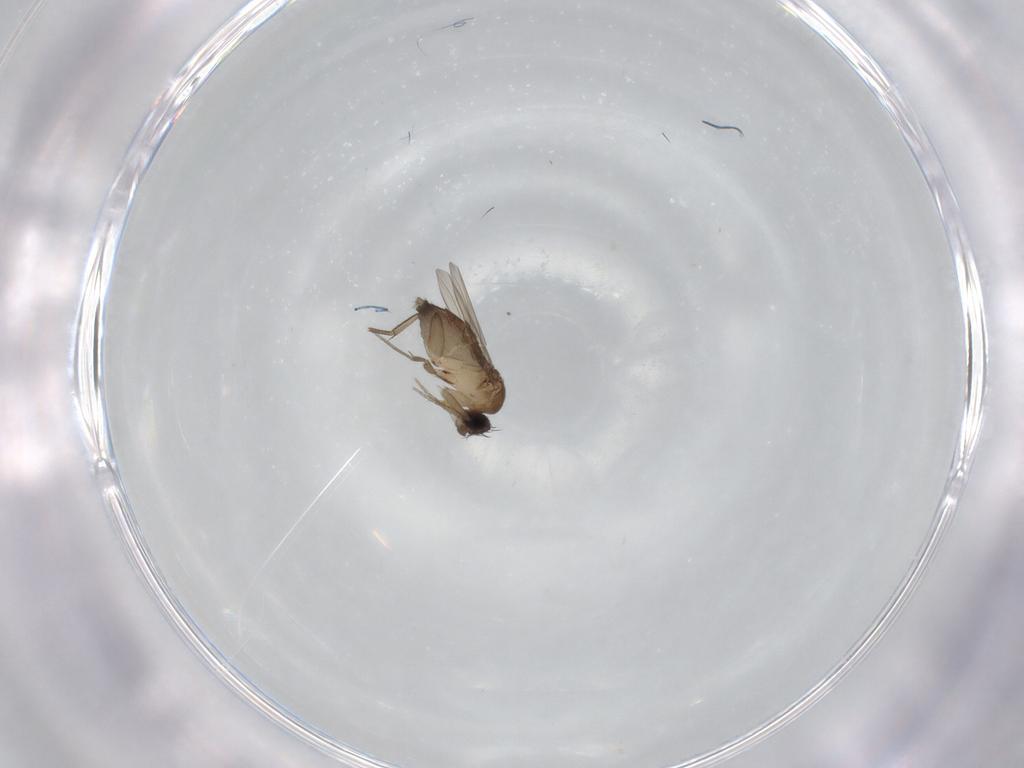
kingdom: Animalia
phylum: Arthropoda
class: Insecta
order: Diptera
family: Phoridae
